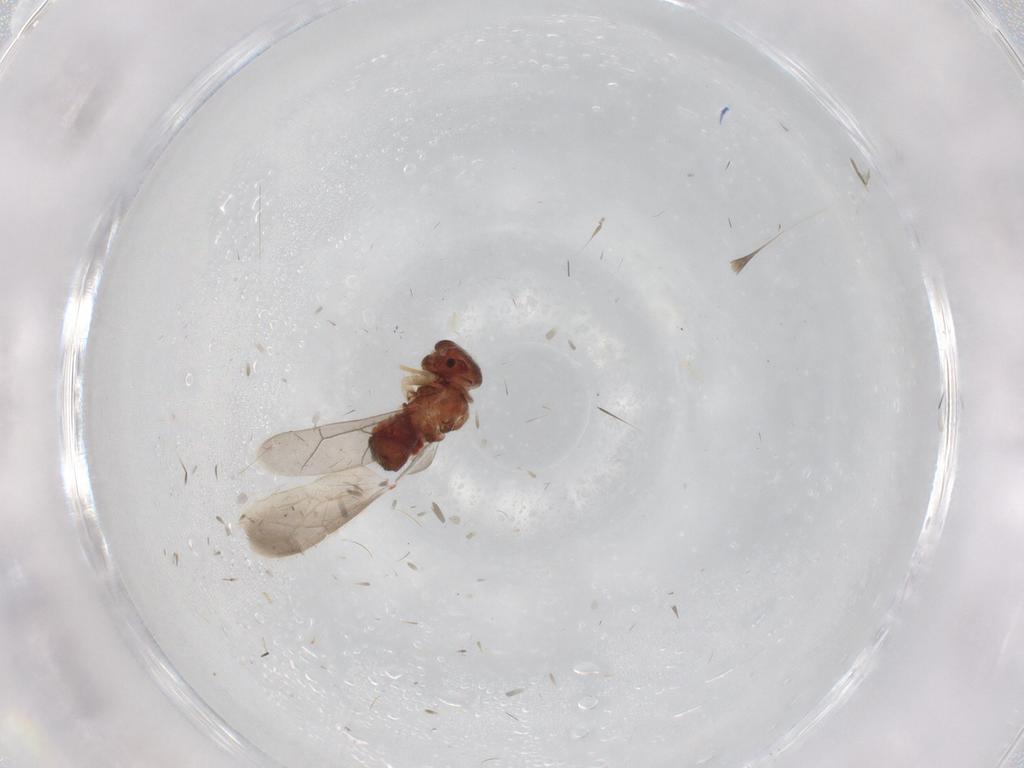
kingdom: Animalia
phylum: Arthropoda
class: Insecta
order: Psocodea
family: Archipsocidae
